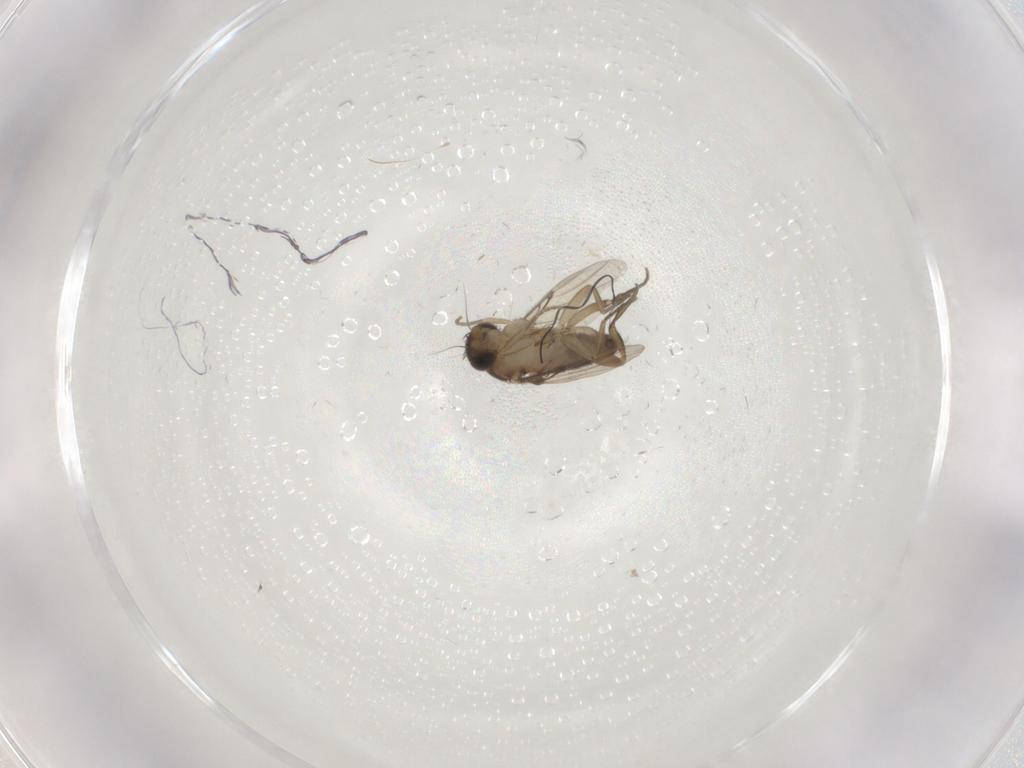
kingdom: Animalia
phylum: Arthropoda
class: Insecta
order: Diptera
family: Phoridae
